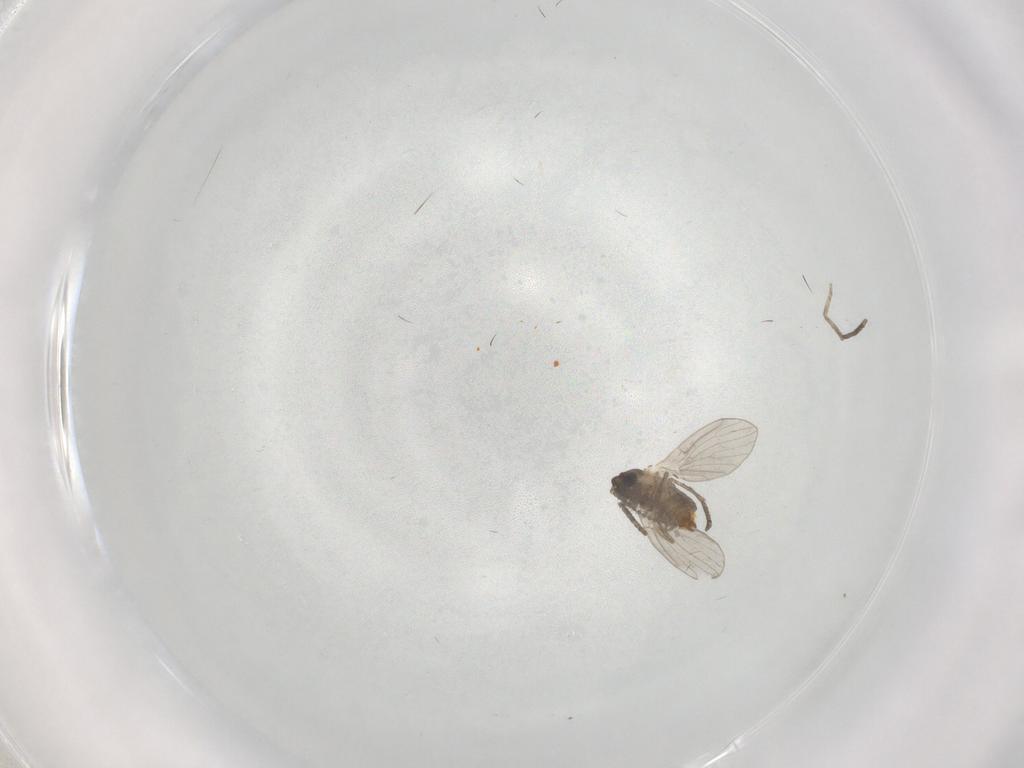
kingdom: Animalia
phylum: Arthropoda
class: Insecta
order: Diptera
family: Tabanidae
